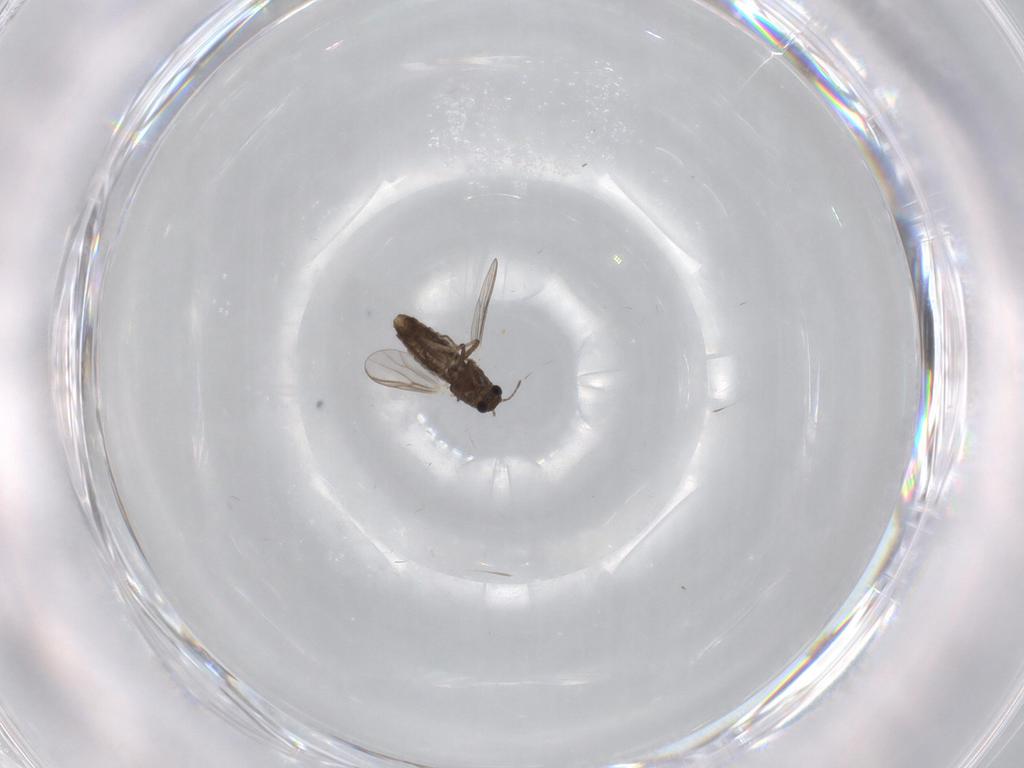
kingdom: Animalia
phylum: Arthropoda
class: Insecta
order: Diptera
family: Chironomidae
